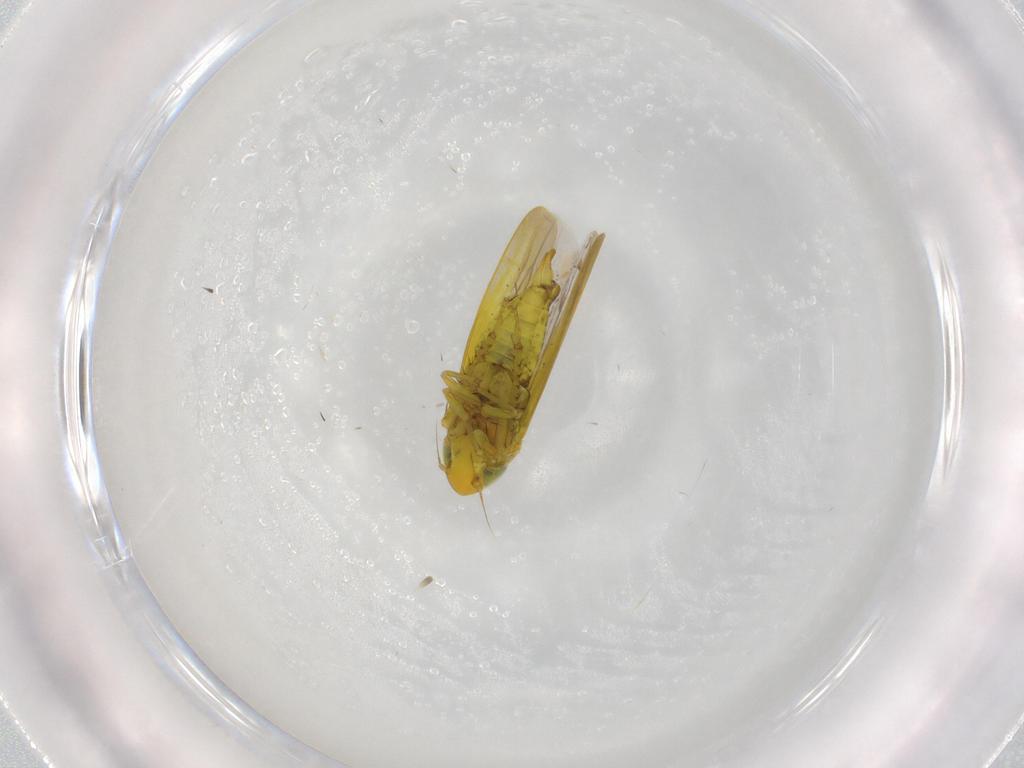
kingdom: Animalia
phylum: Arthropoda
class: Insecta
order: Hemiptera
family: Cicadellidae
